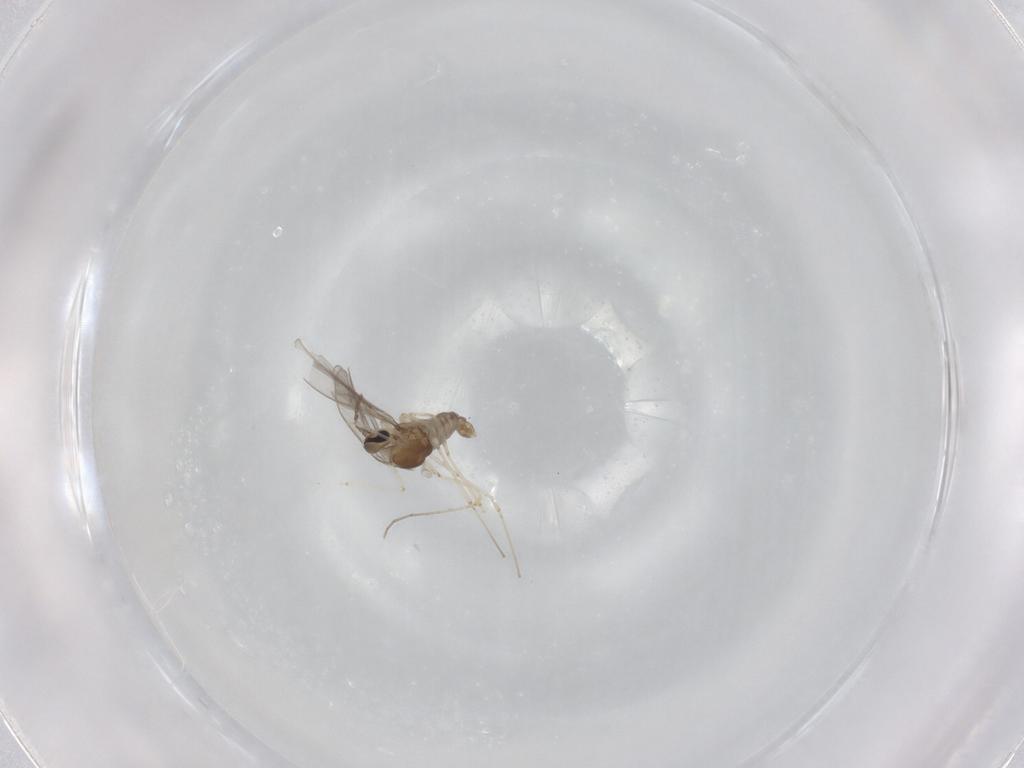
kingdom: Animalia
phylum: Arthropoda
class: Insecta
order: Diptera
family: Cecidomyiidae
